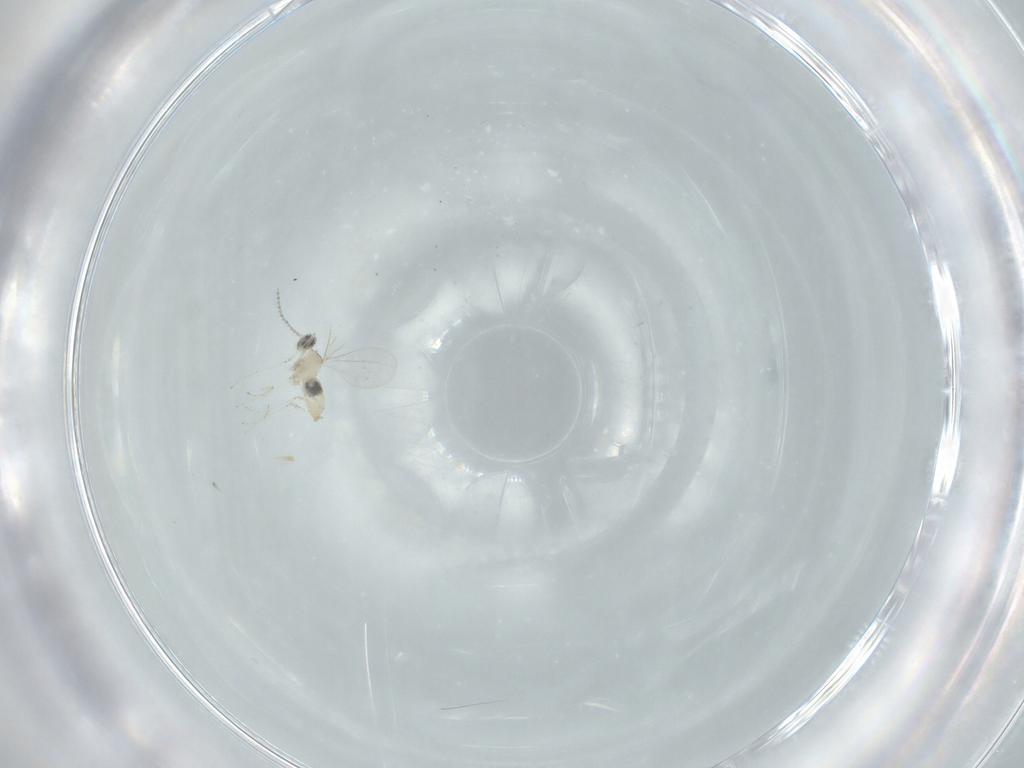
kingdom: Animalia
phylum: Arthropoda
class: Insecta
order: Diptera
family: Cecidomyiidae
